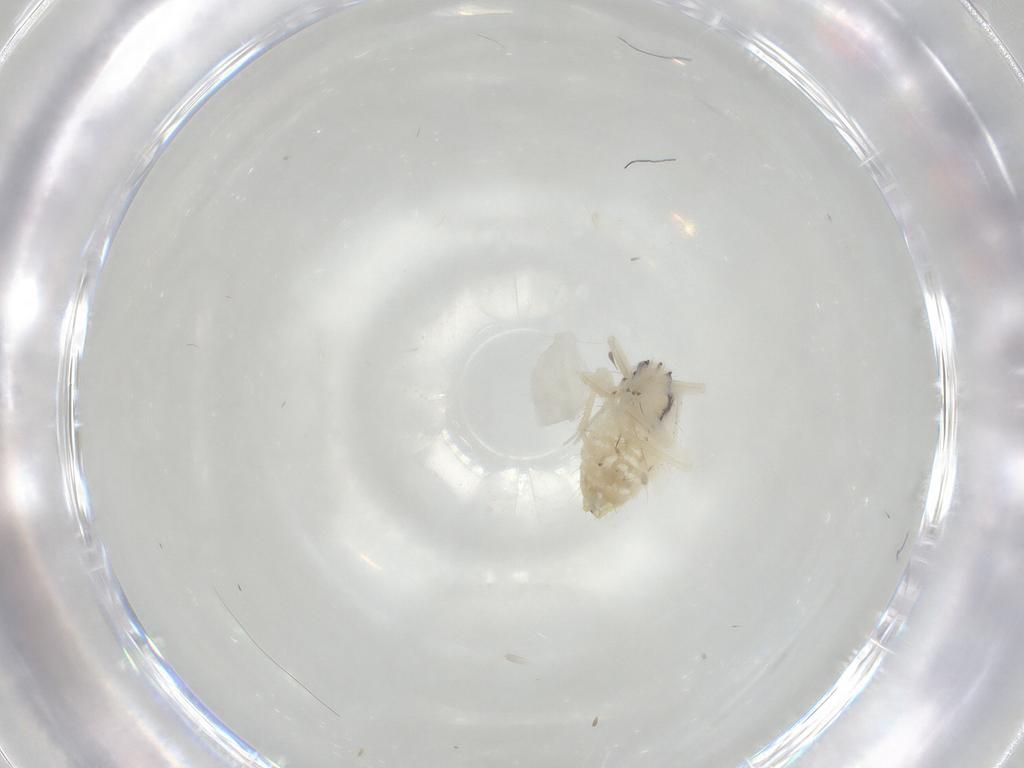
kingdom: Animalia
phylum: Arthropoda
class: Insecta
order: Psocodea
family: Philotarsidae
